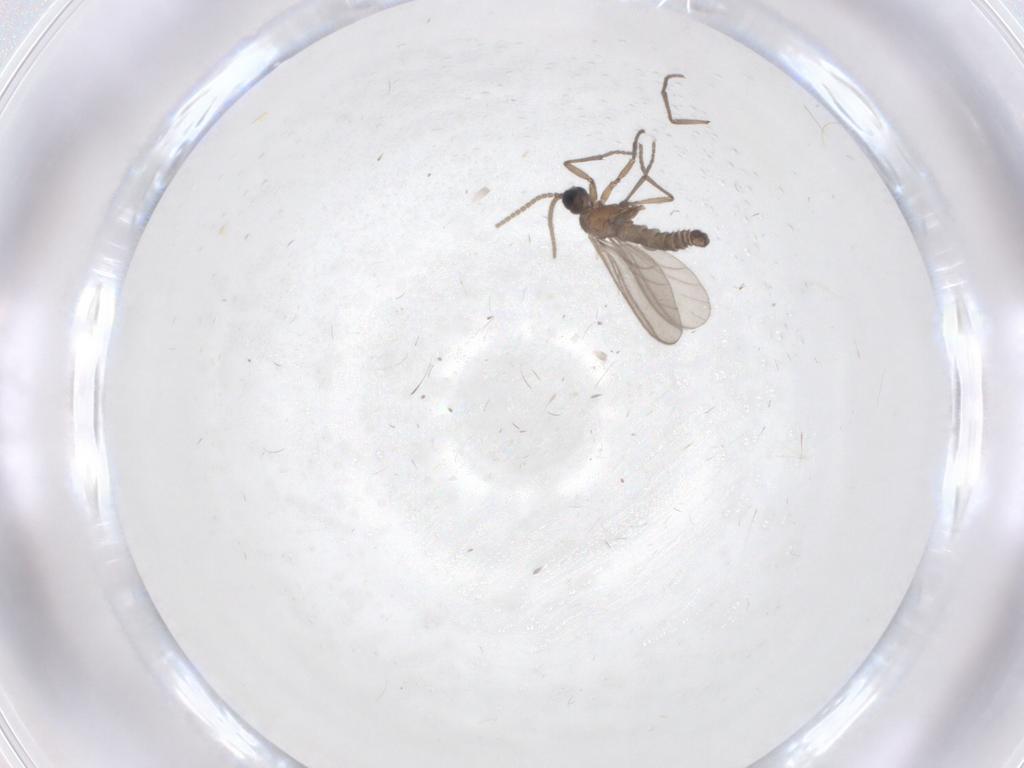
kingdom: Animalia
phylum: Arthropoda
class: Insecta
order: Diptera
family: Sciaridae
